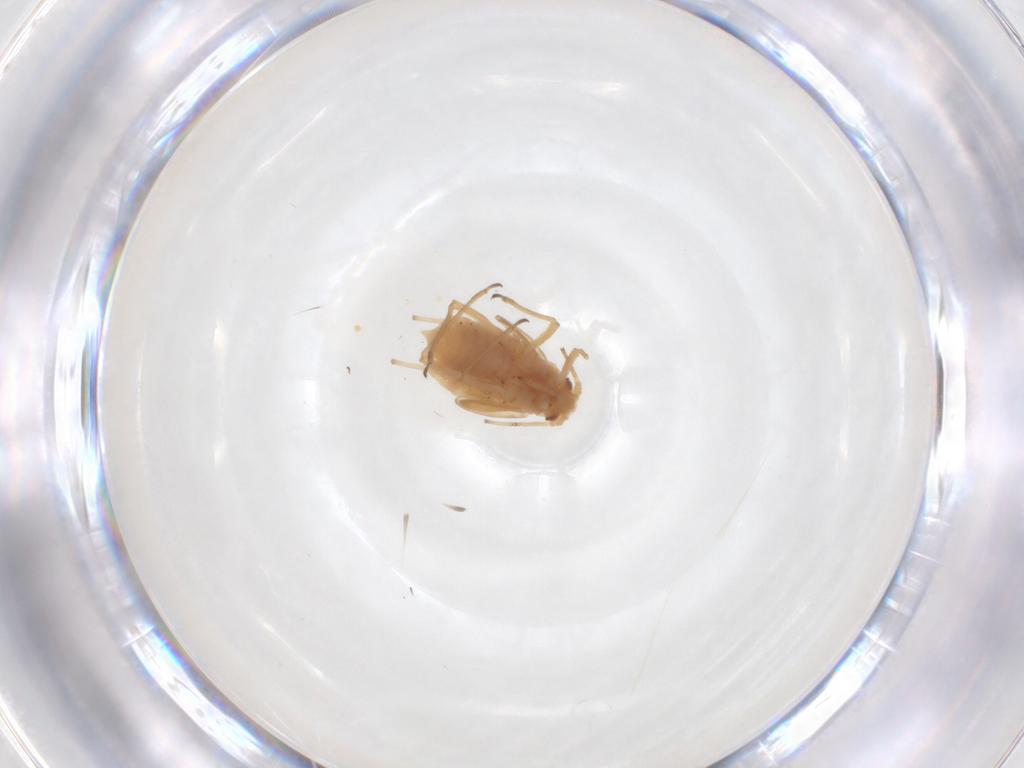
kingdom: Animalia
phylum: Arthropoda
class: Insecta
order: Hemiptera
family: Aphididae
